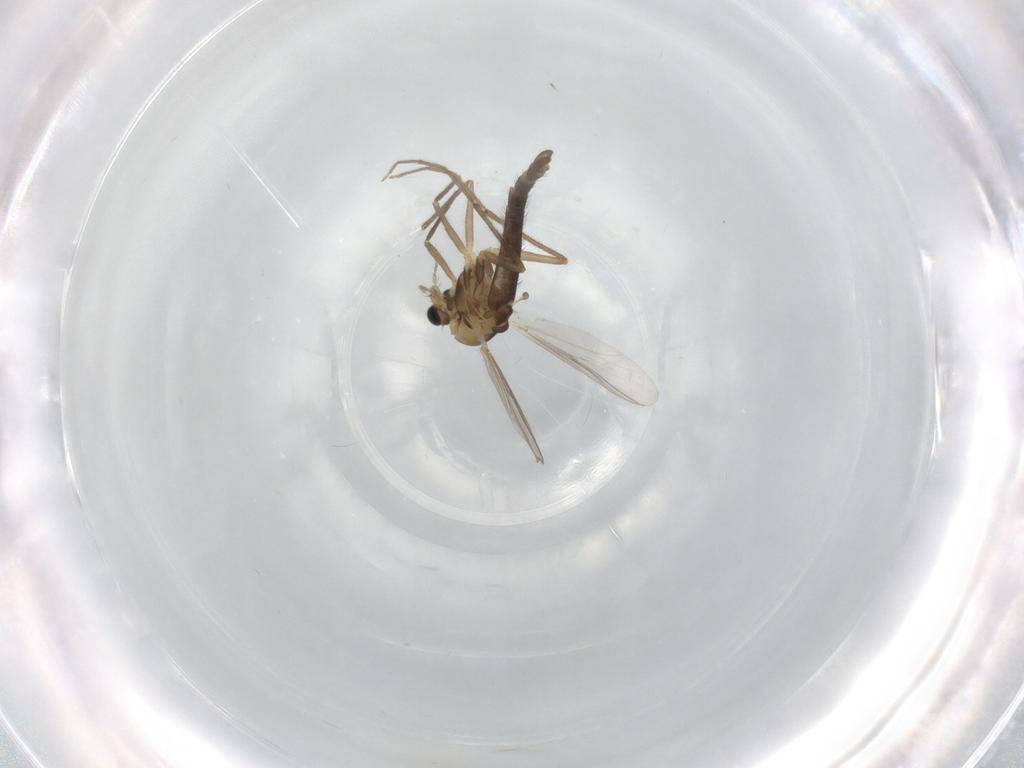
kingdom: Animalia
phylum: Arthropoda
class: Insecta
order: Diptera
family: Chironomidae
